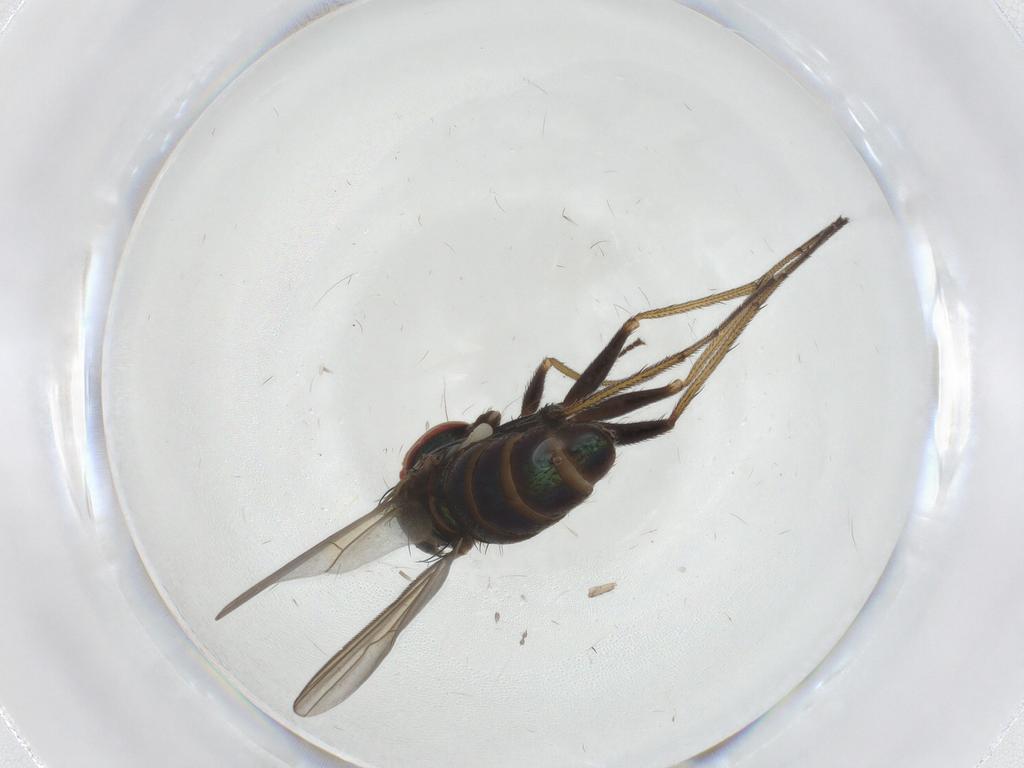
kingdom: Animalia
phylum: Arthropoda
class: Insecta
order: Diptera
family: Dolichopodidae
